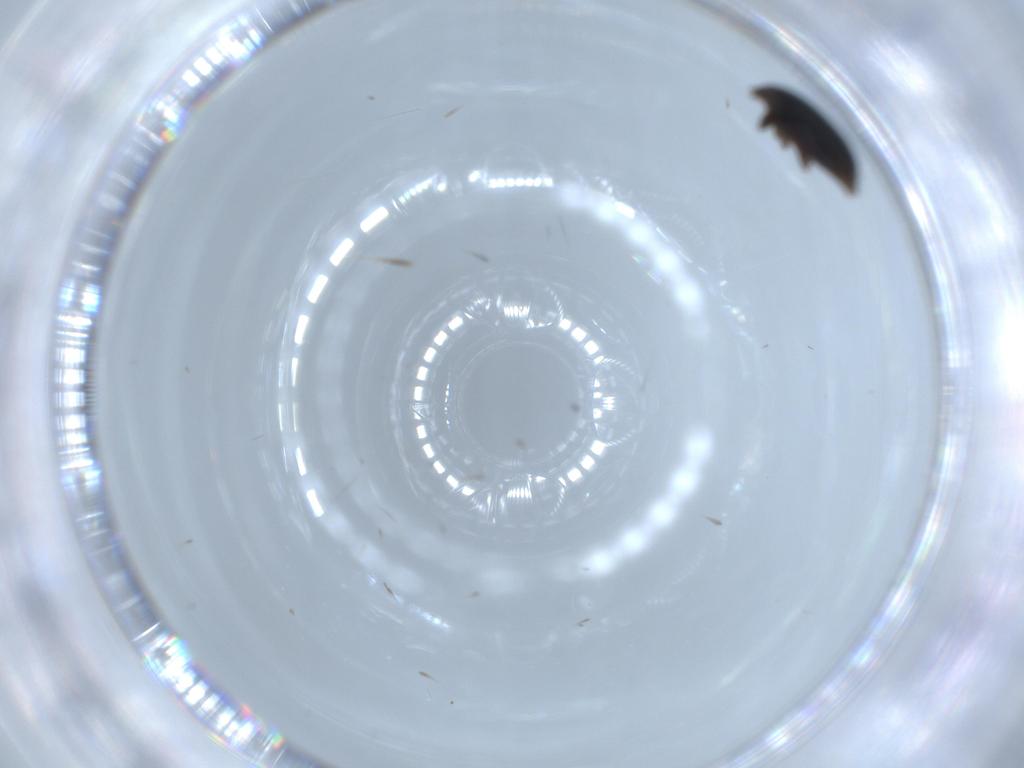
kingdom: Animalia
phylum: Arthropoda
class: Insecta
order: Coleoptera
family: Corylophidae
